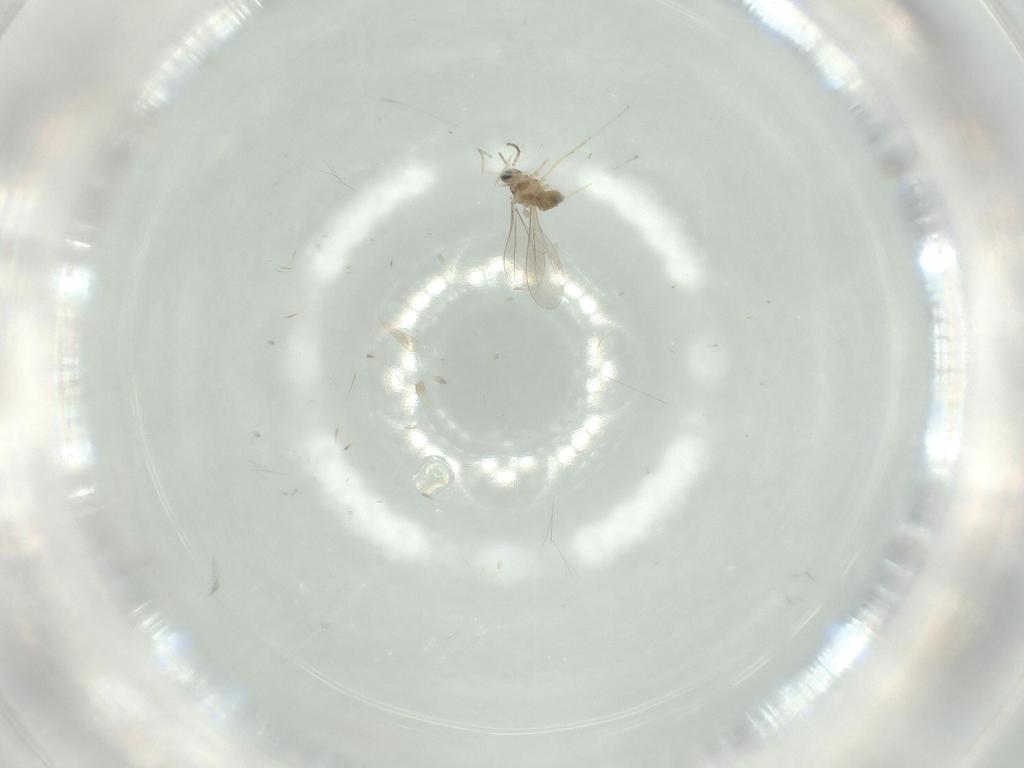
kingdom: Animalia
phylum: Arthropoda
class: Insecta
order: Diptera
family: Cecidomyiidae
